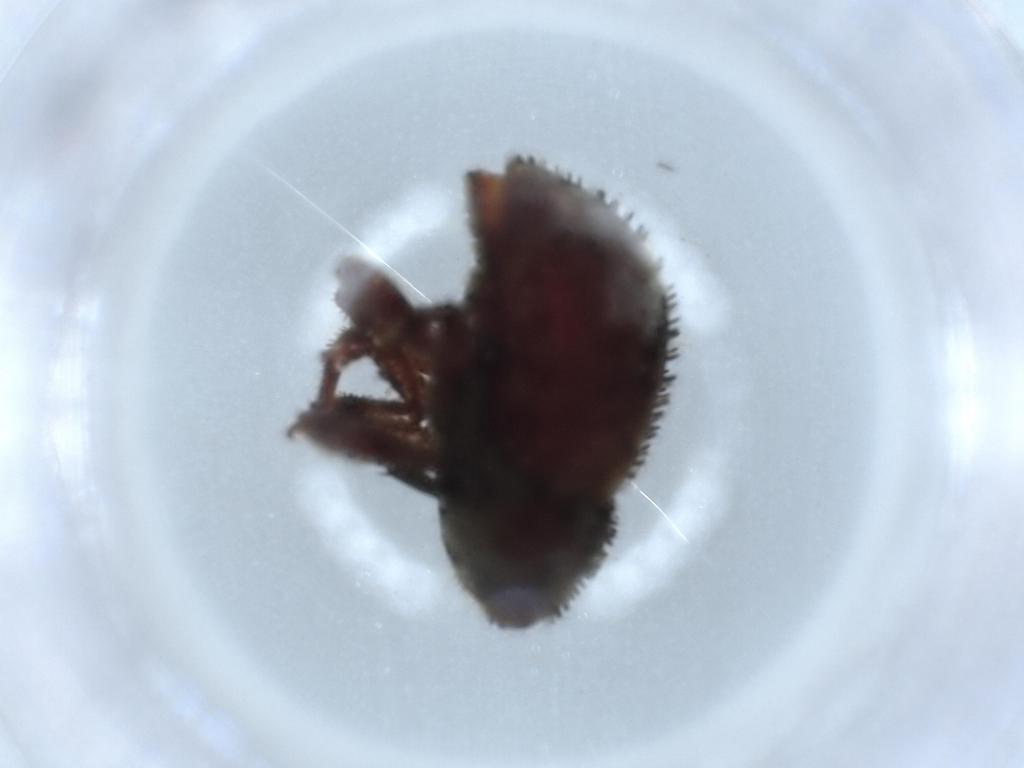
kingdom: Animalia
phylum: Arthropoda
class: Insecta
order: Coleoptera
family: Curculionidae
